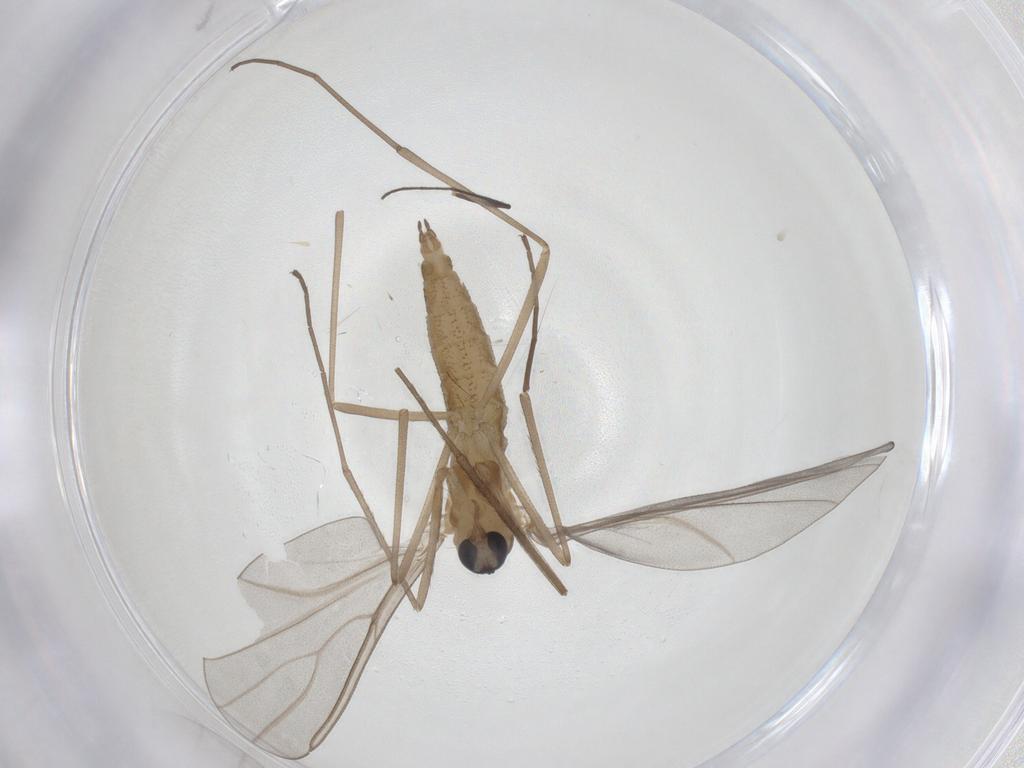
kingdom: Animalia
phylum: Arthropoda
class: Insecta
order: Diptera
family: Cecidomyiidae
